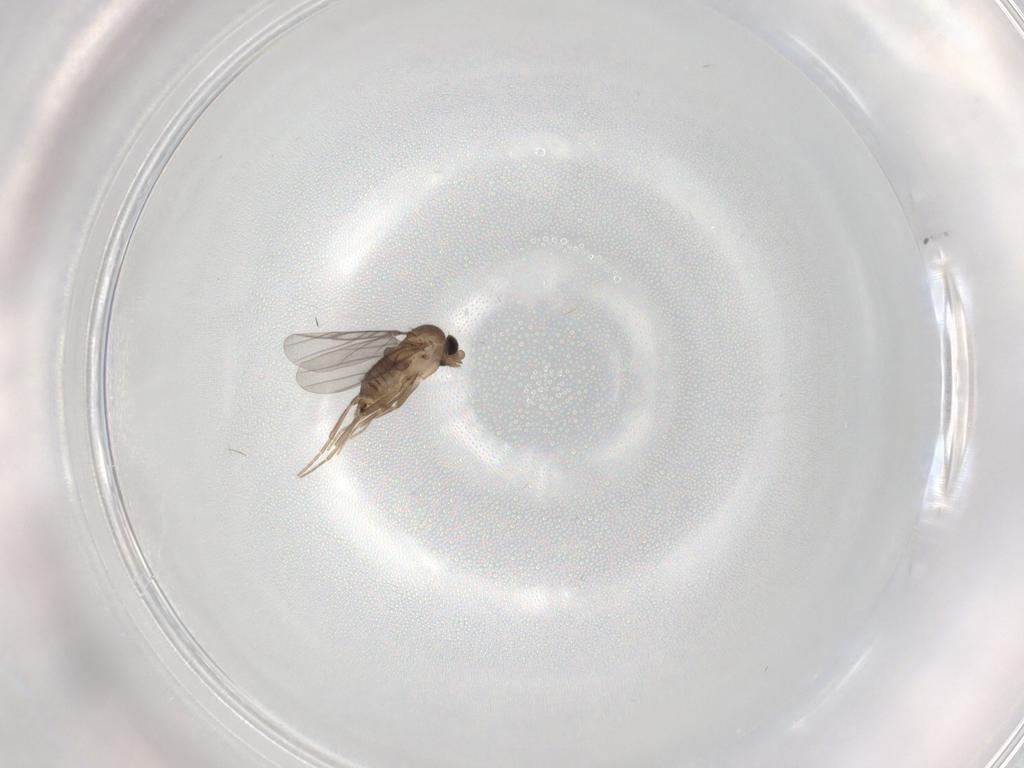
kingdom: Animalia
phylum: Arthropoda
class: Insecta
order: Diptera
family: Sciaridae
